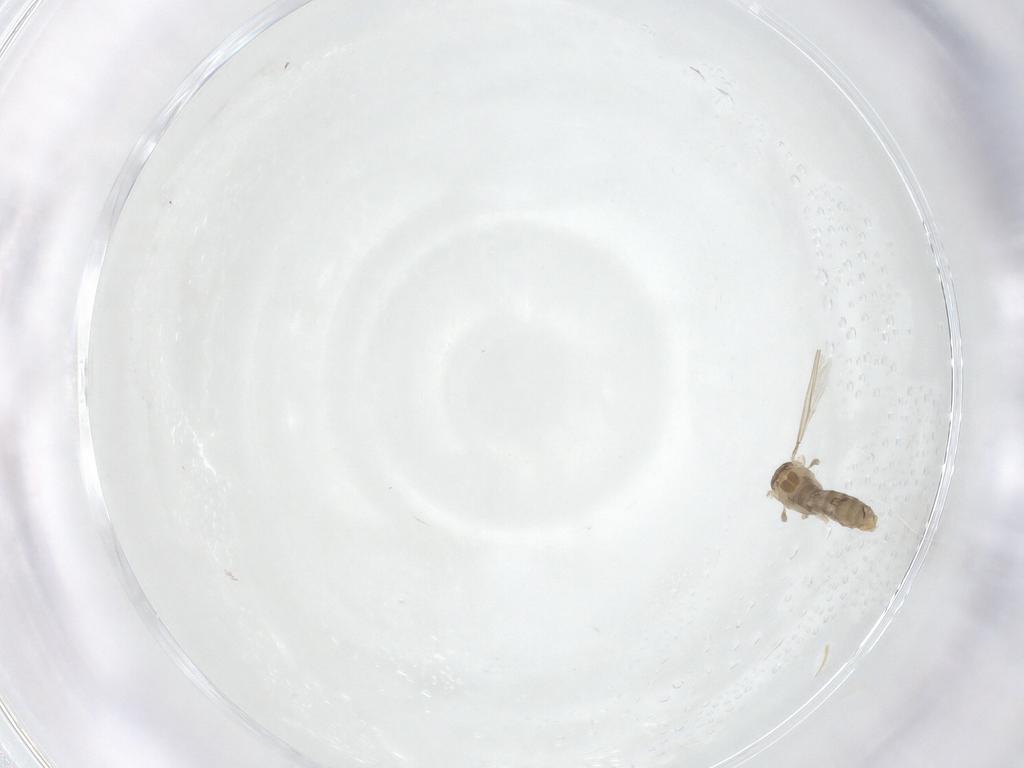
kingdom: Animalia
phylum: Arthropoda
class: Insecta
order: Diptera
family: Chironomidae
